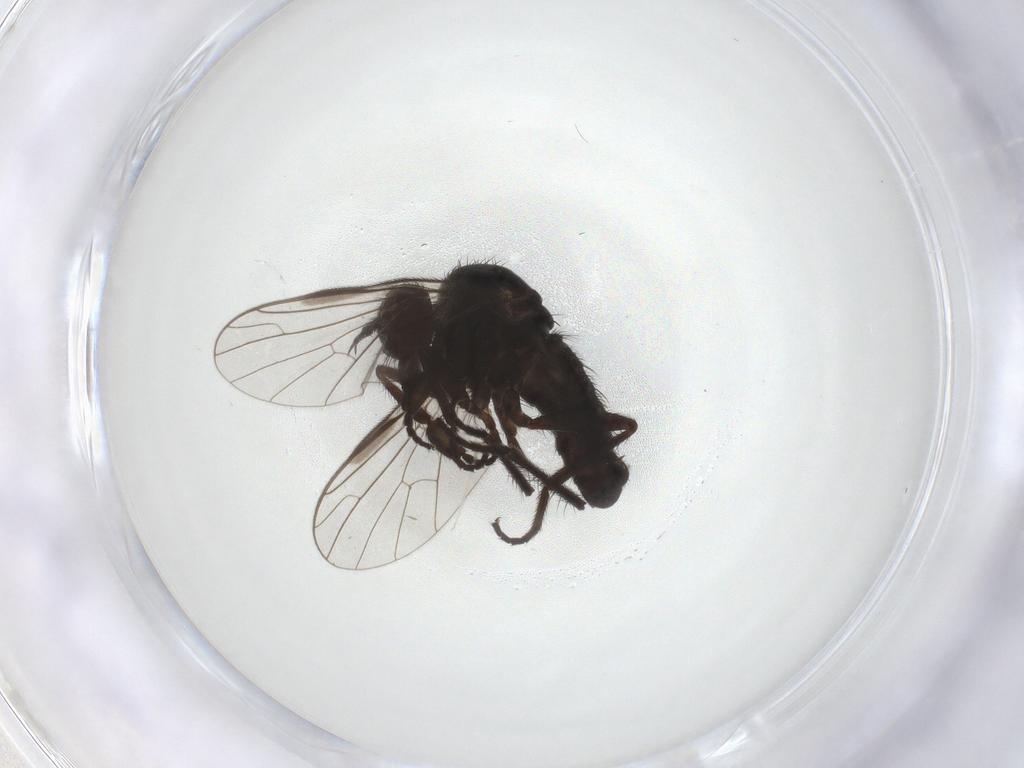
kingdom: Animalia
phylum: Arthropoda
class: Insecta
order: Diptera
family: Empididae
